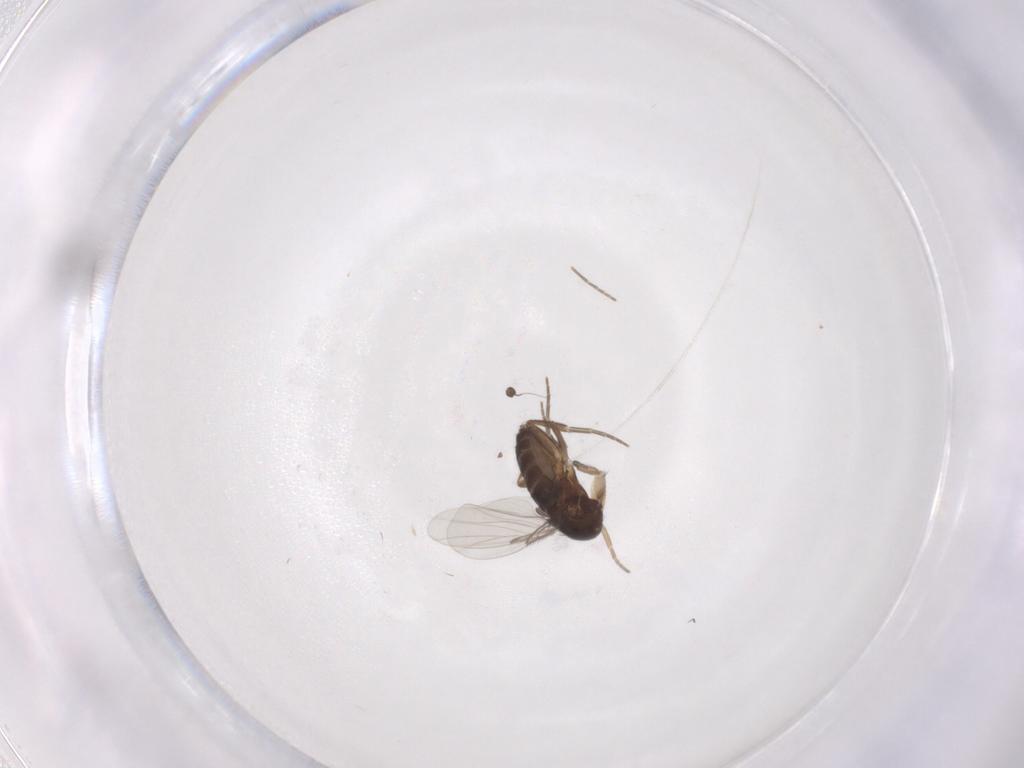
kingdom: Animalia
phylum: Arthropoda
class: Insecta
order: Diptera
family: Phoridae
